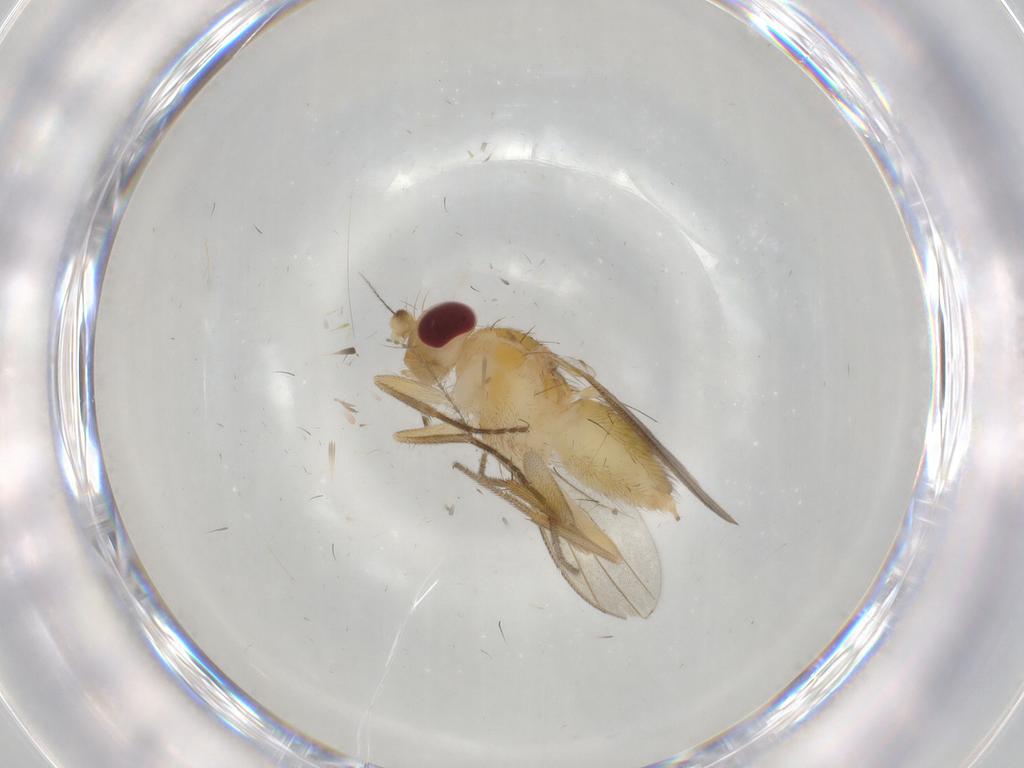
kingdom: Animalia
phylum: Arthropoda
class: Insecta
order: Diptera
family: Clusiidae
